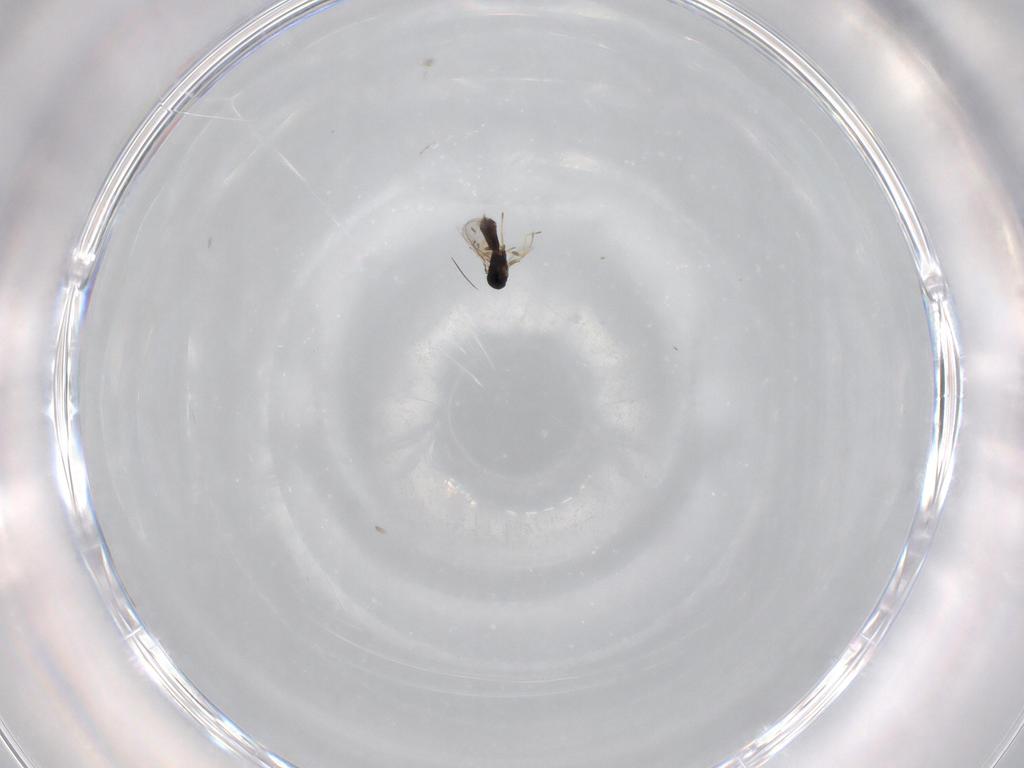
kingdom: Animalia
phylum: Arthropoda
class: Insecta
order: Hymenoptera
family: Eulophidae
